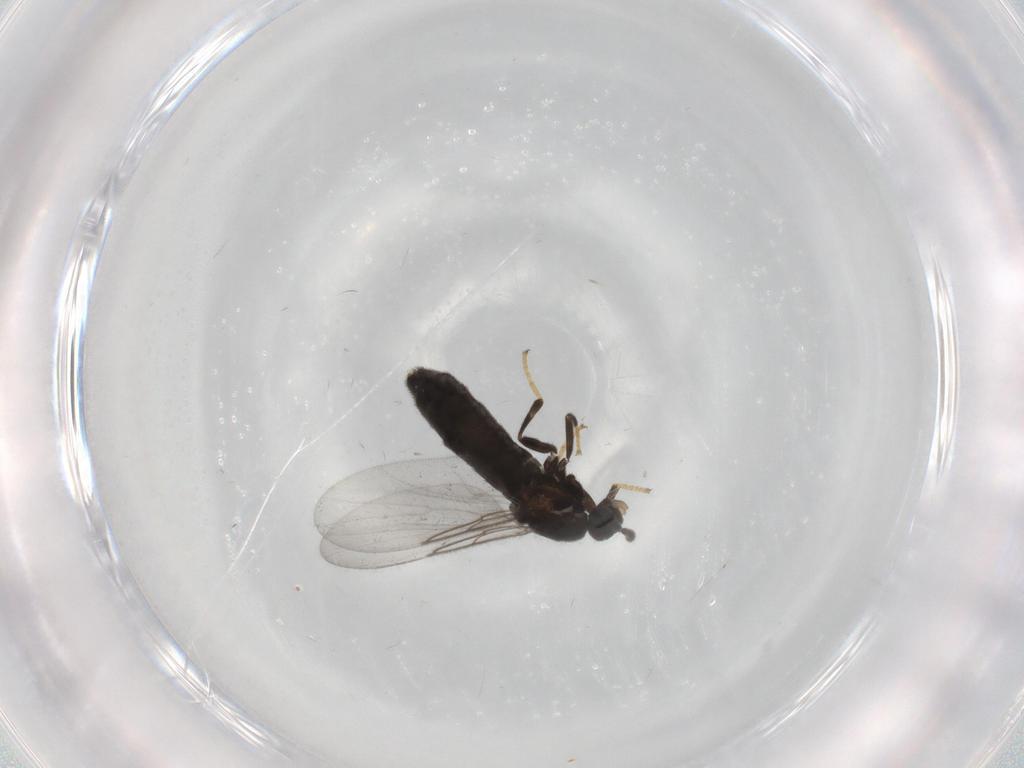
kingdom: Animalia
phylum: Arthropoda
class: Insecta
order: Diptera
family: Scatopsidae
